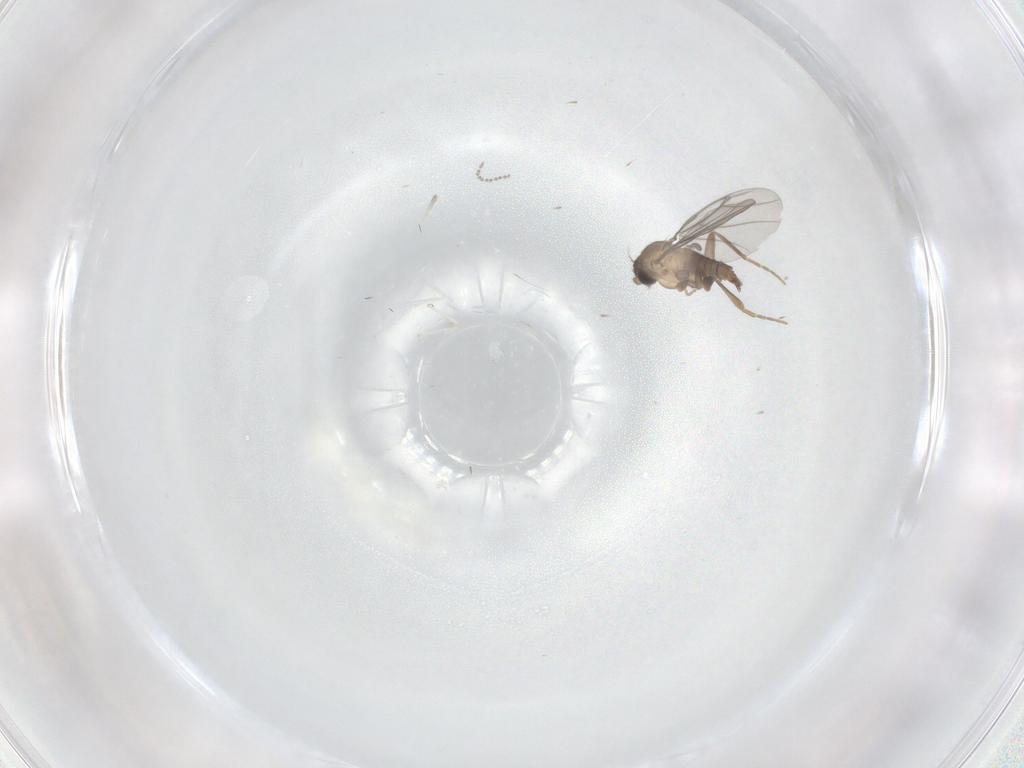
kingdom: Animalia
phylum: Arthropoda
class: Insecta
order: Diptera
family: Cecidomyiidae
